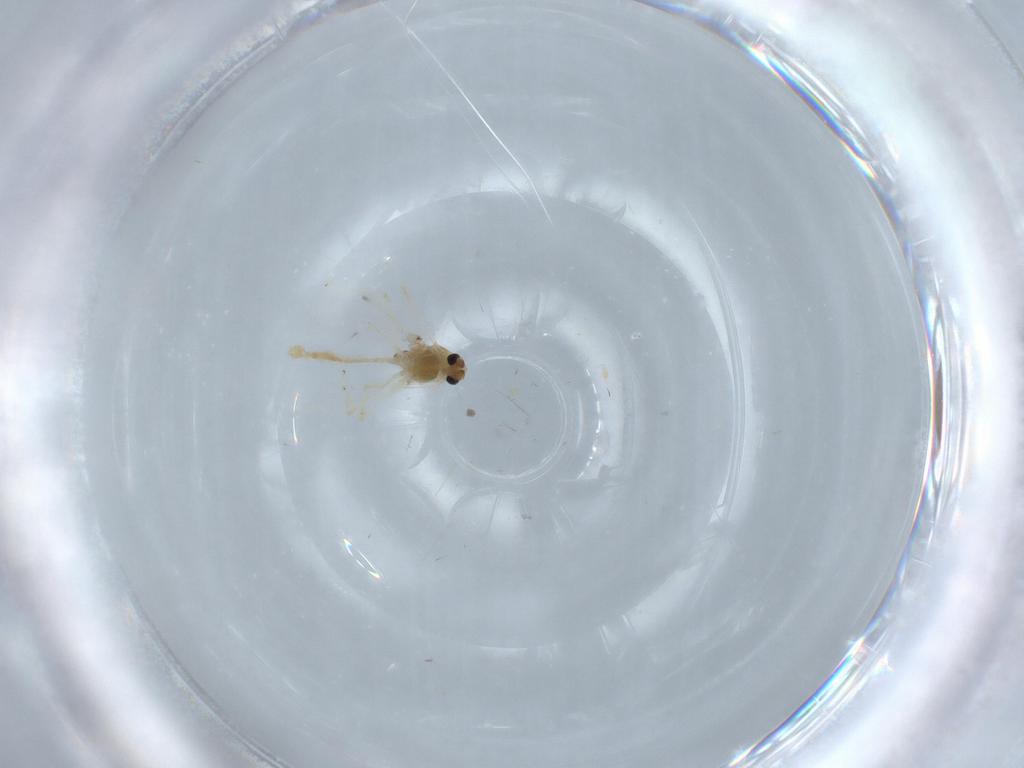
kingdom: Animalia
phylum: Arthropoda
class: Insecta
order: Diptera
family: Chironomidae
